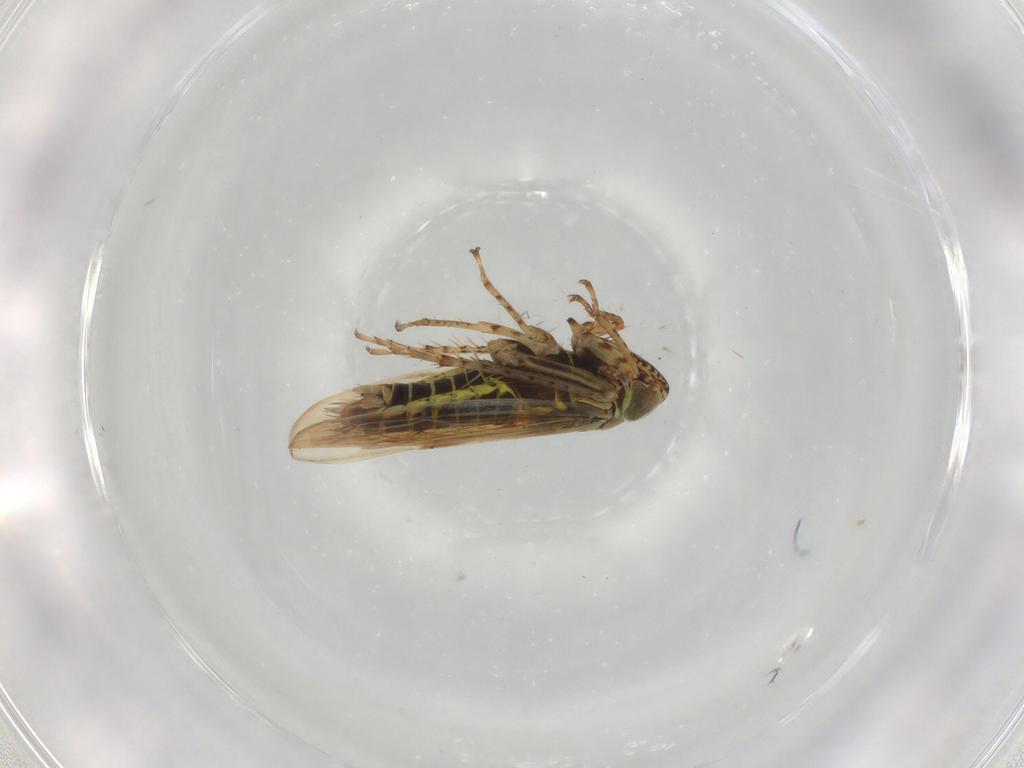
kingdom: Animalia
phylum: Arthropoda
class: Insecta
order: Hemiptera
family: Cicadellidae
